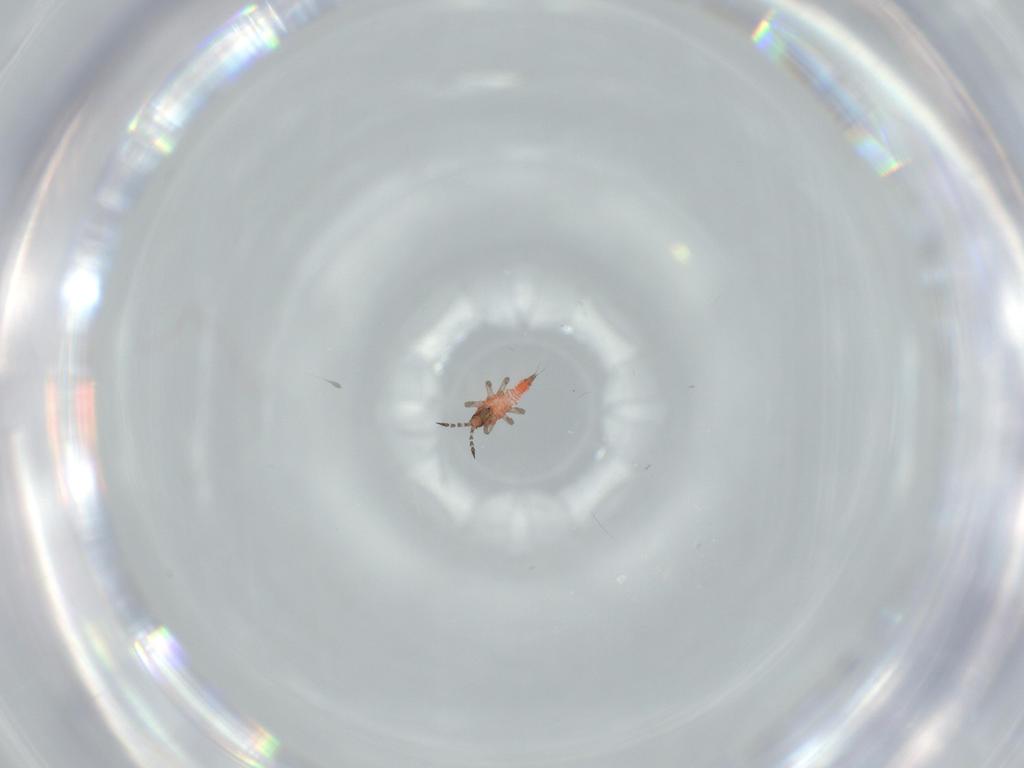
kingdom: Animalia
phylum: Arthropoda
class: Insecta
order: Thysanoptera
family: Phlaeothripidae
